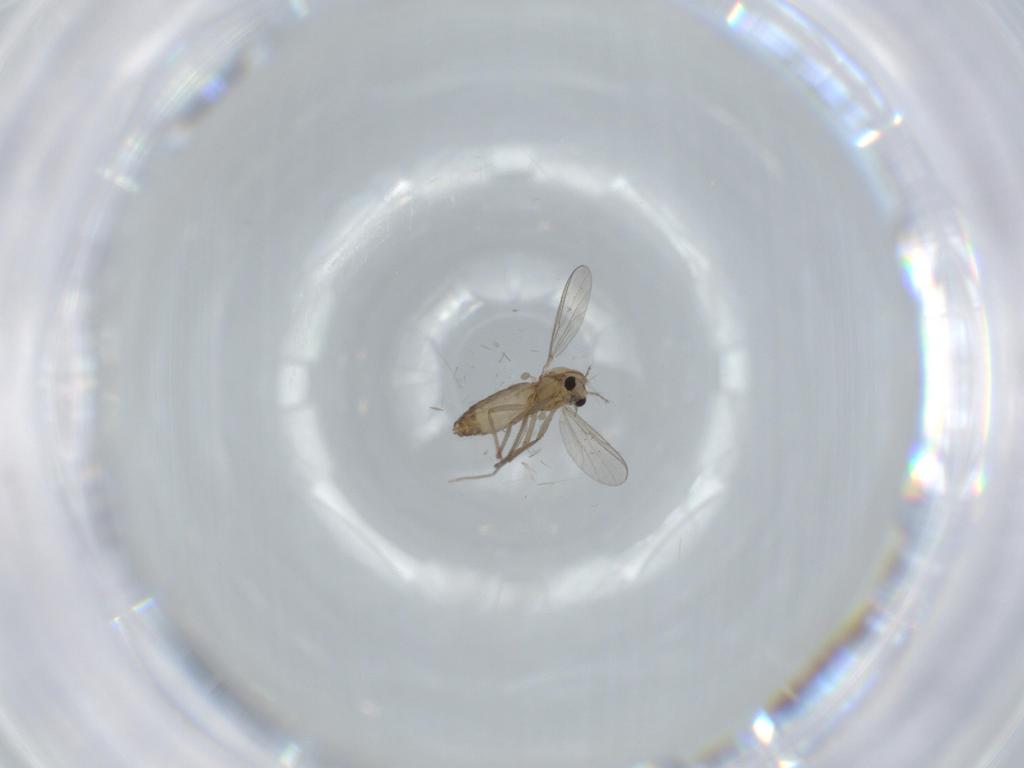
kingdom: Animalia
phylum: Arthropoda
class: Insecta
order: Diptera
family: Chironomidae
